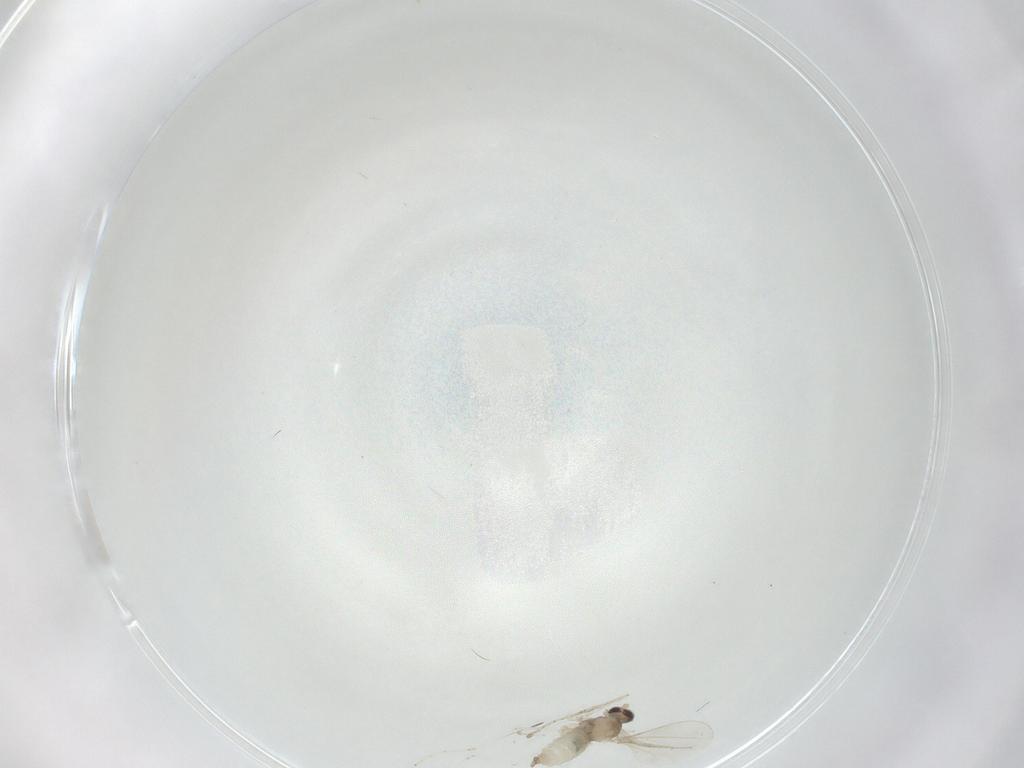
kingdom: Animalia
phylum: Arthropoda
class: Insecta
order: Diptera
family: Cecidomyiidae
